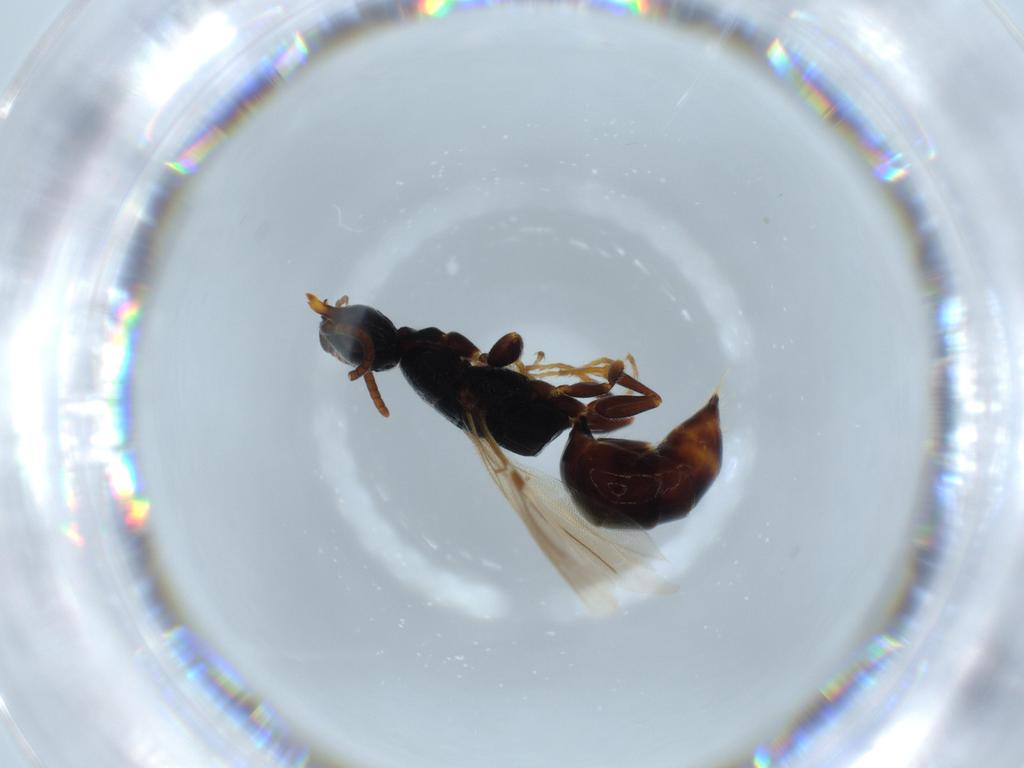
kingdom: Animalia
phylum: Arthropoda
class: Insecta
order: Hymenoptera
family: Bethylidae
